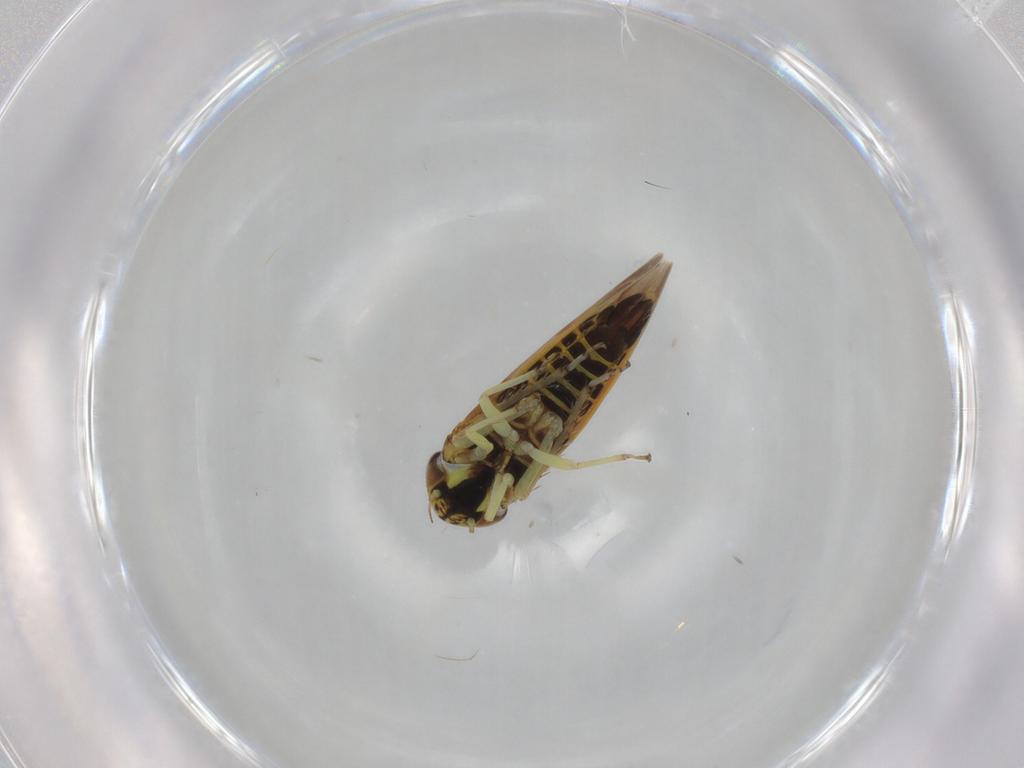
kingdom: Animalia
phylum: Arthropoda
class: Insecta
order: Hemiptera
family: Cicadellidae
